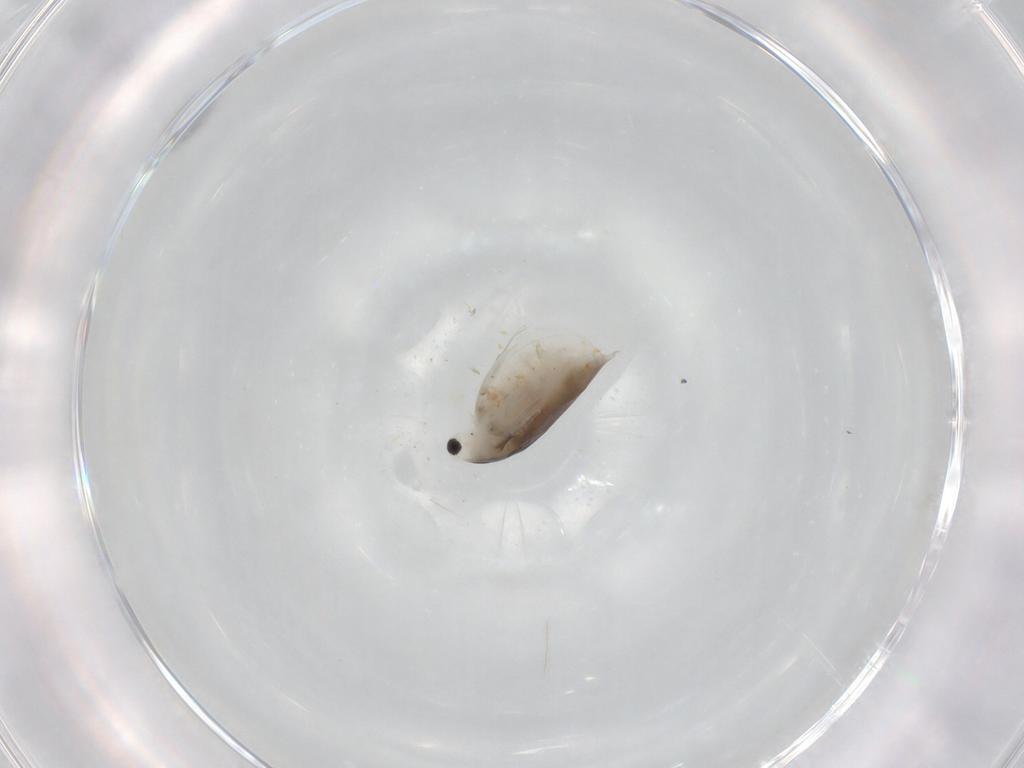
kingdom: Animalia
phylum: Arthropoda
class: Branchiopoda
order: Diplostraca
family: Daphniidae
